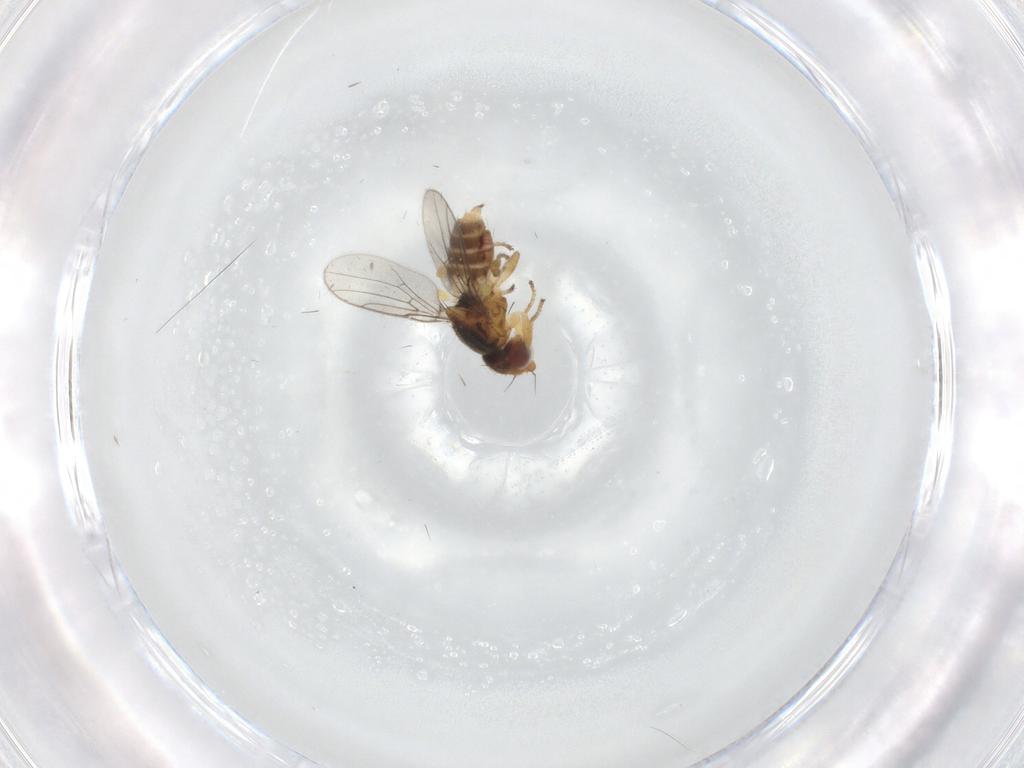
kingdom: Animalia
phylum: Arthropoda
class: Insecta
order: Diptera
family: Chloropidae
